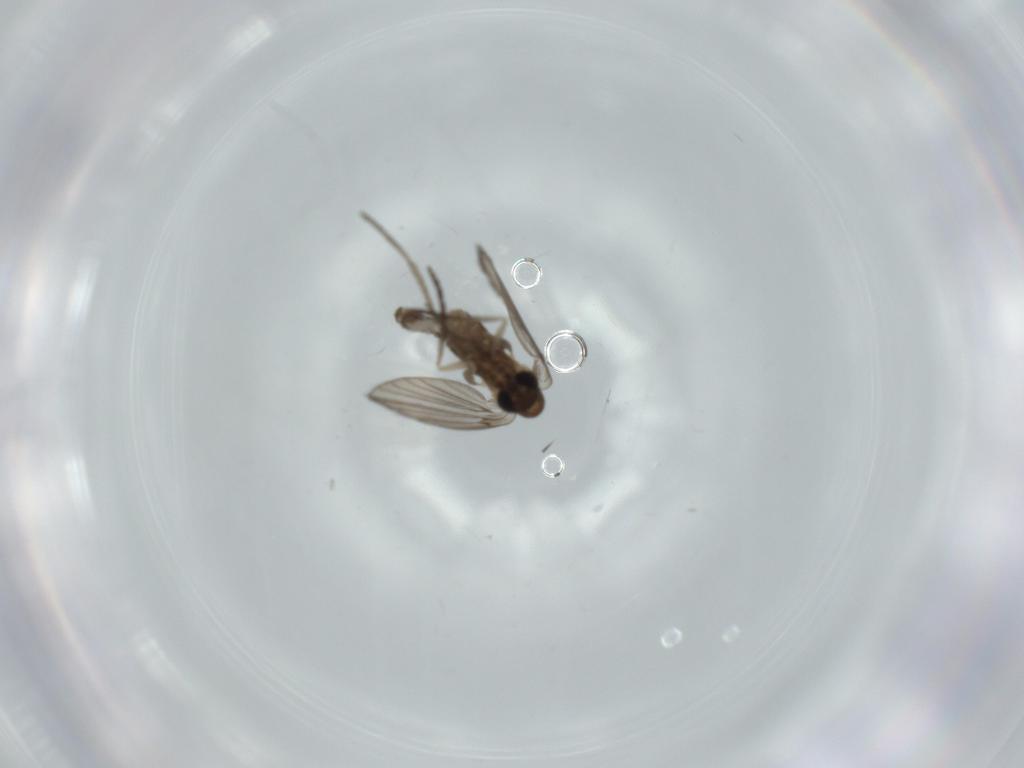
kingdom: Animalia
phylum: Arthropoda
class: Insecta
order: Diptera
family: Psychodidae
